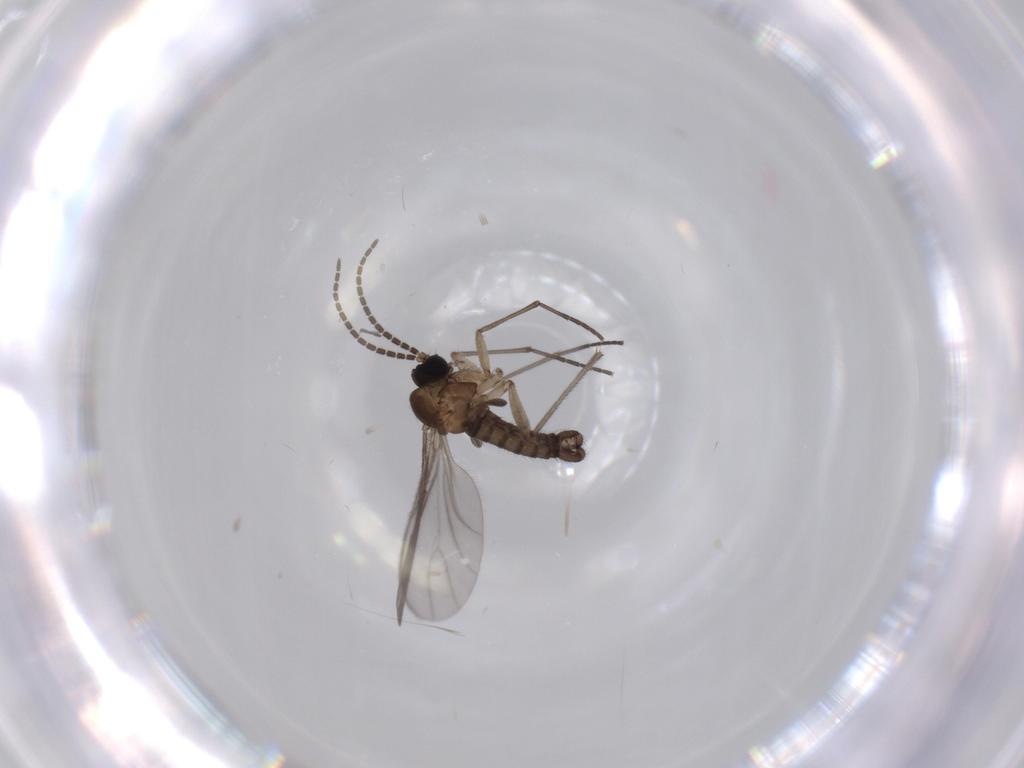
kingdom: Animalia
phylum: Arthropoda
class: Insecta
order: Diptera
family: Sciaridae
